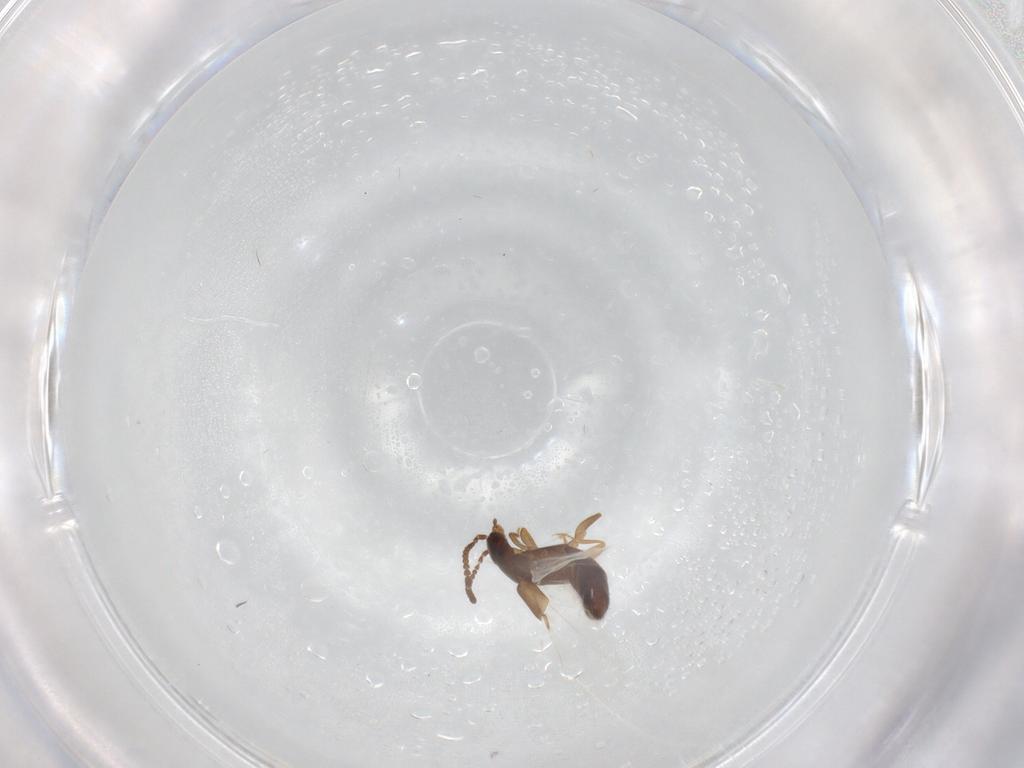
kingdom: Animalia
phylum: Arthropoda
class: Insecta
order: Coleoptera
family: Staphylinidae
